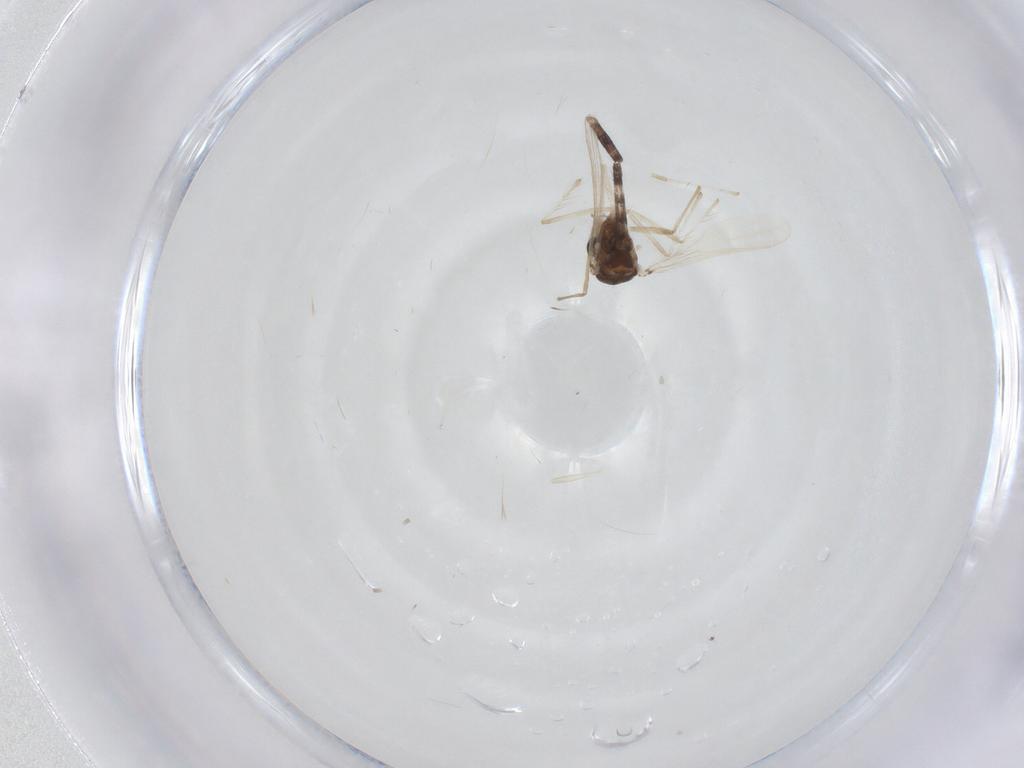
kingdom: Animalia
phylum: Arthropoda
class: Insecta
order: Diptera
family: Chironomidae
